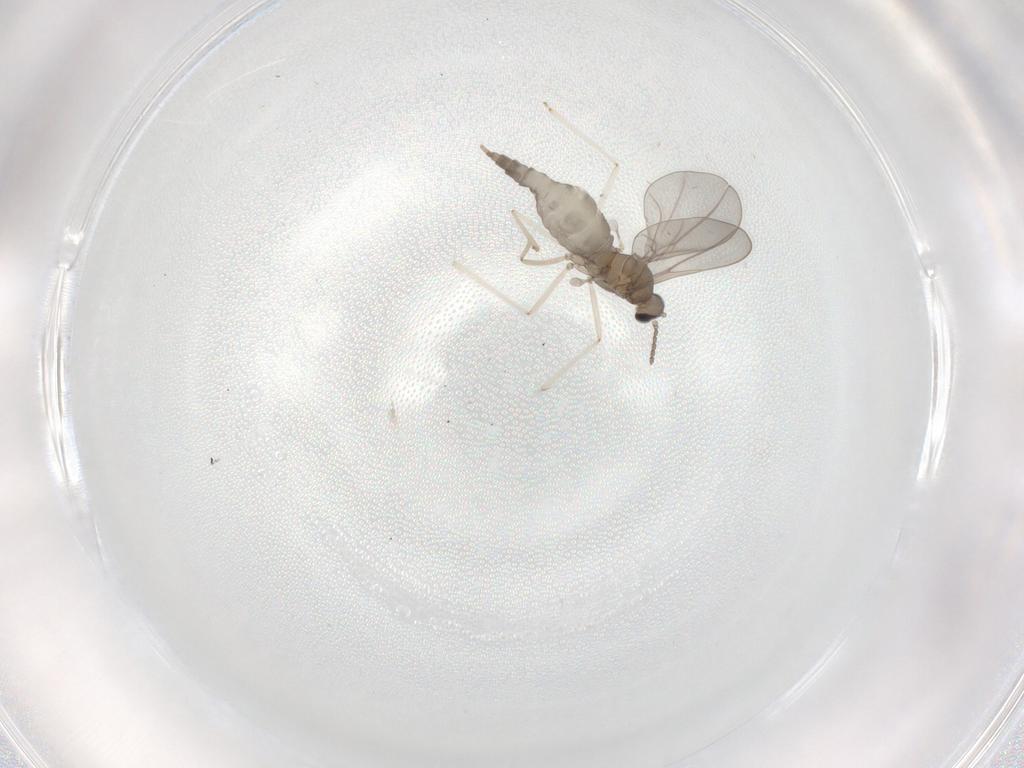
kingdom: Animalia
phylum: Arthropoda
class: Insecta
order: Diptera
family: Cecidomyiidae
